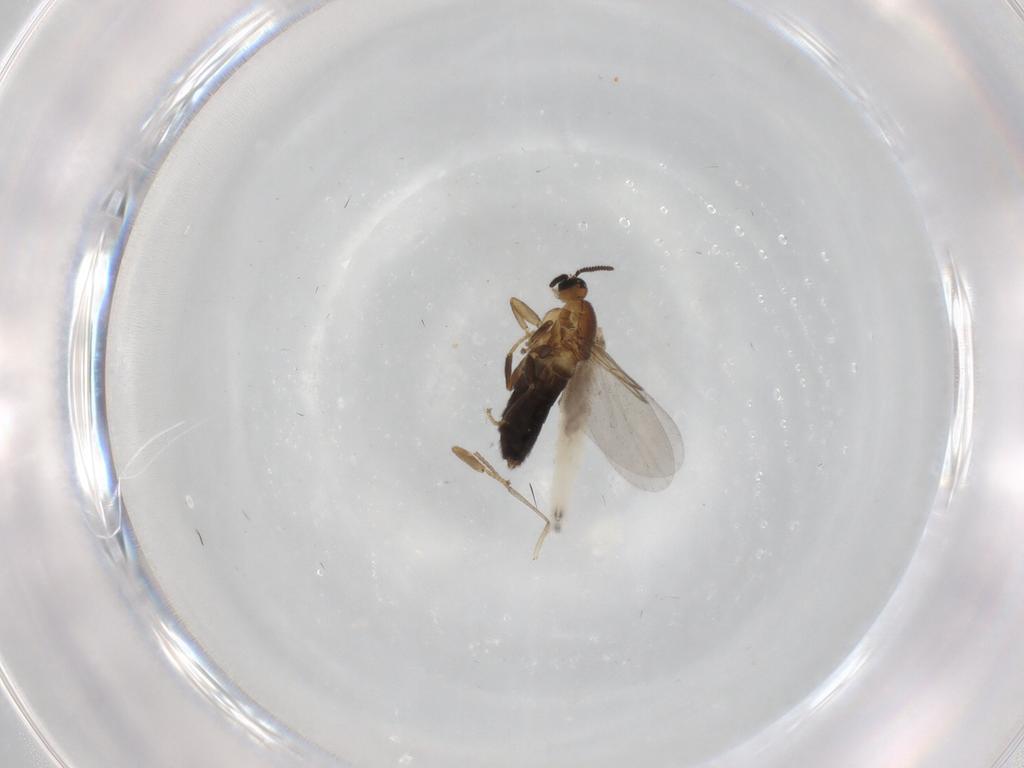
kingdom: Animalia
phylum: Arthropoda
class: Insecta
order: Diptera
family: Scatopsidae
